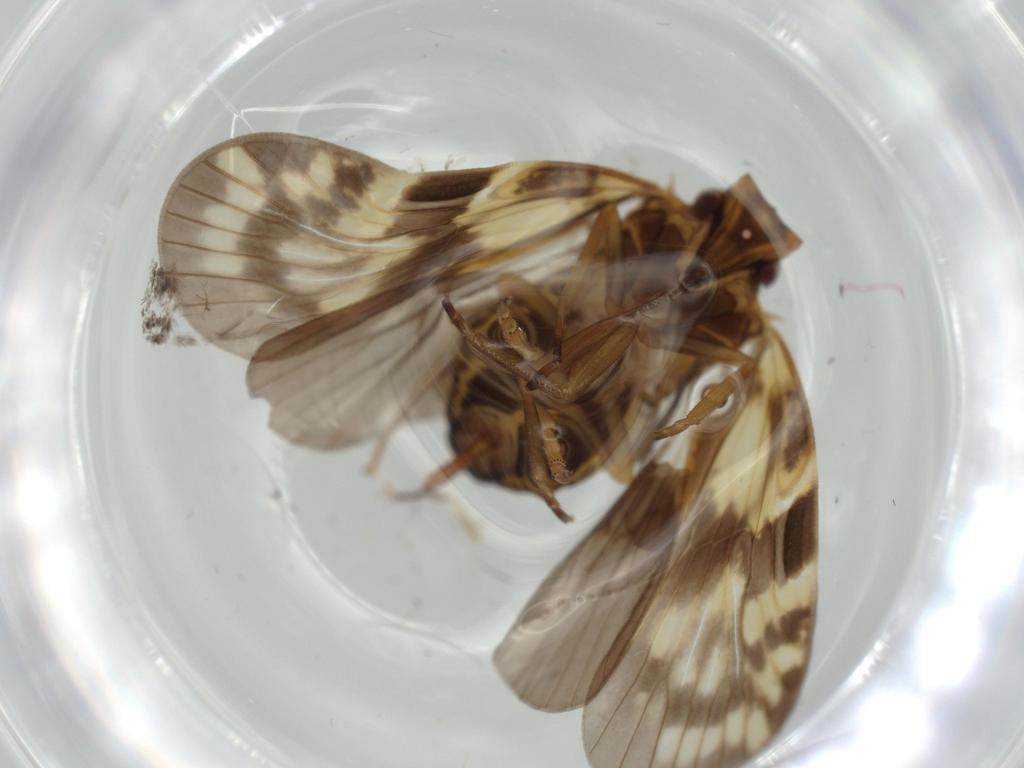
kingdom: Animalia
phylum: Arthropoda
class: Insecta
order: Hemiptera
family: Cixiidae
